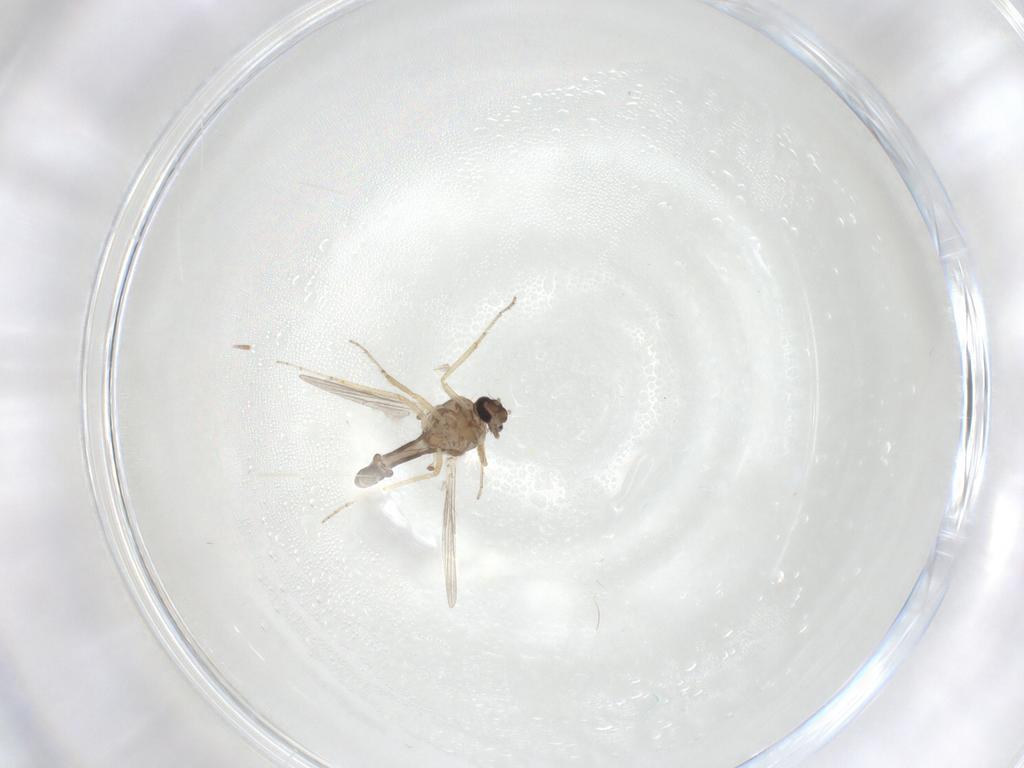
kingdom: Animalia
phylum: Arthropoda
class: Insecta
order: Diptera
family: Ceratopogonidae
